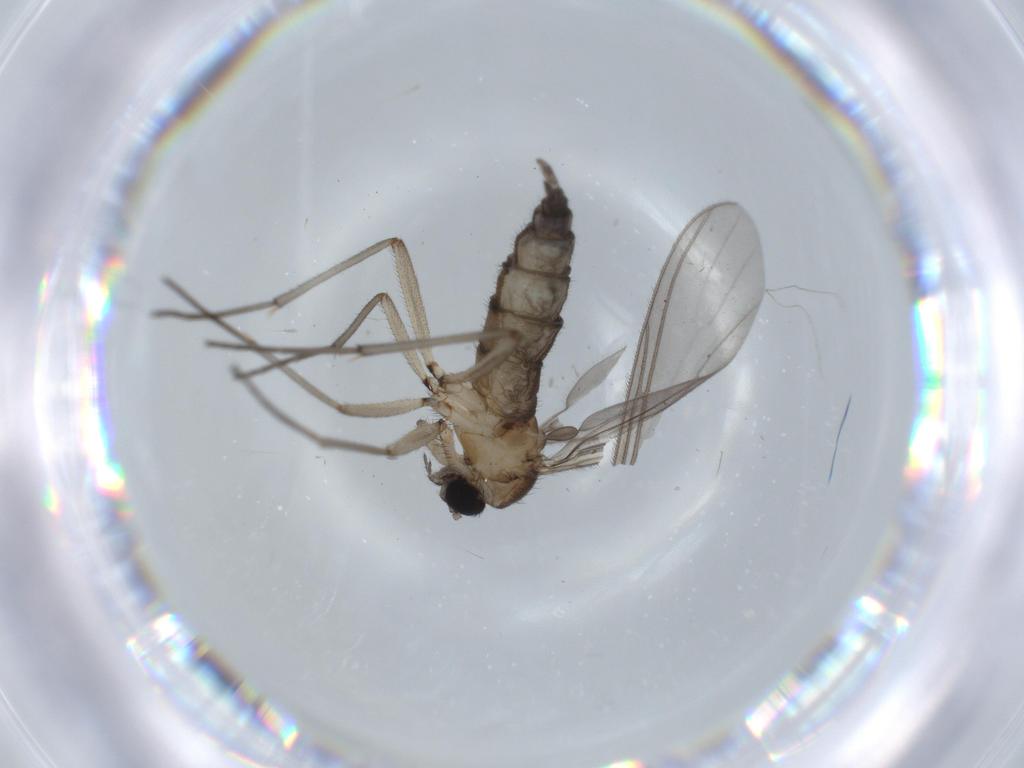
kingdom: Animalia
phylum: Arthropoda
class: Insecta
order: Diptera
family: Sciaridae
